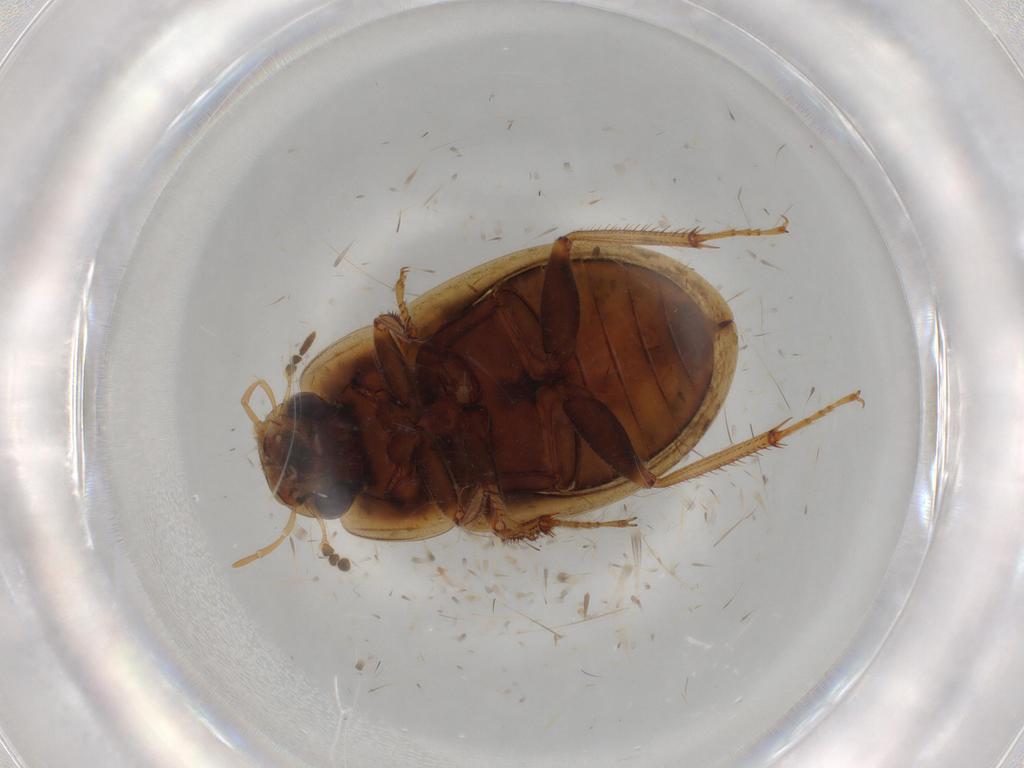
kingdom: Animalia
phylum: Arthropoda
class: Insecta
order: Coleoptera
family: Hydrophilidae
